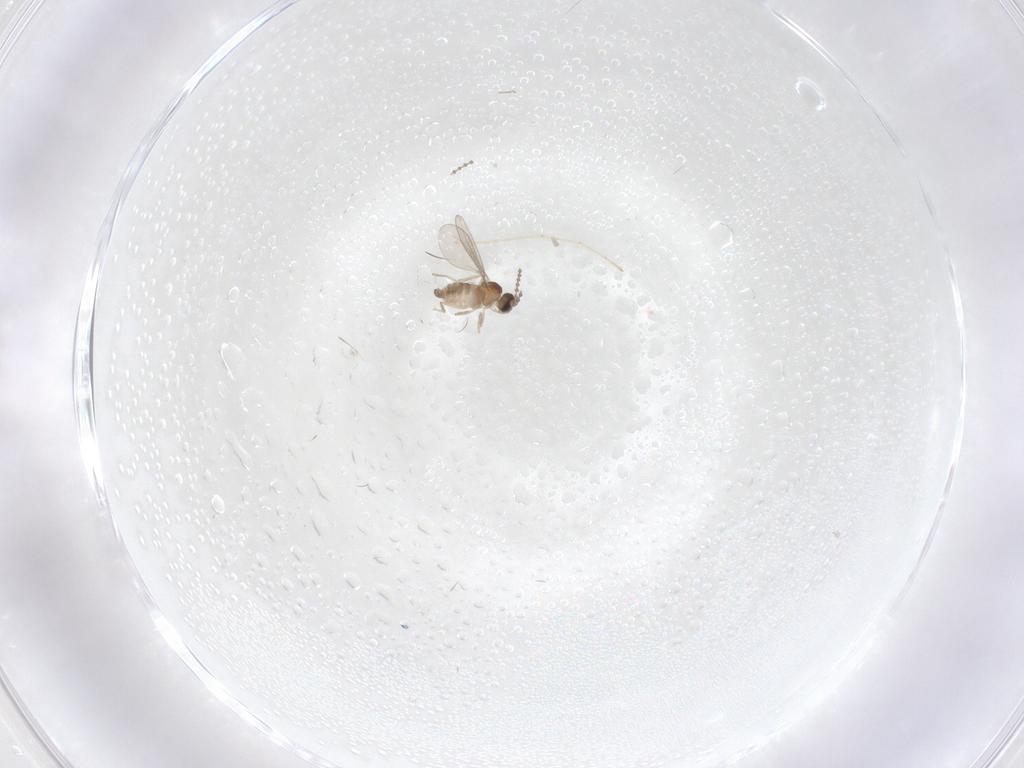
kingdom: Animalia
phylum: Arthropoda
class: Insecta
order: Diptera
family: Cecidomyiidae
